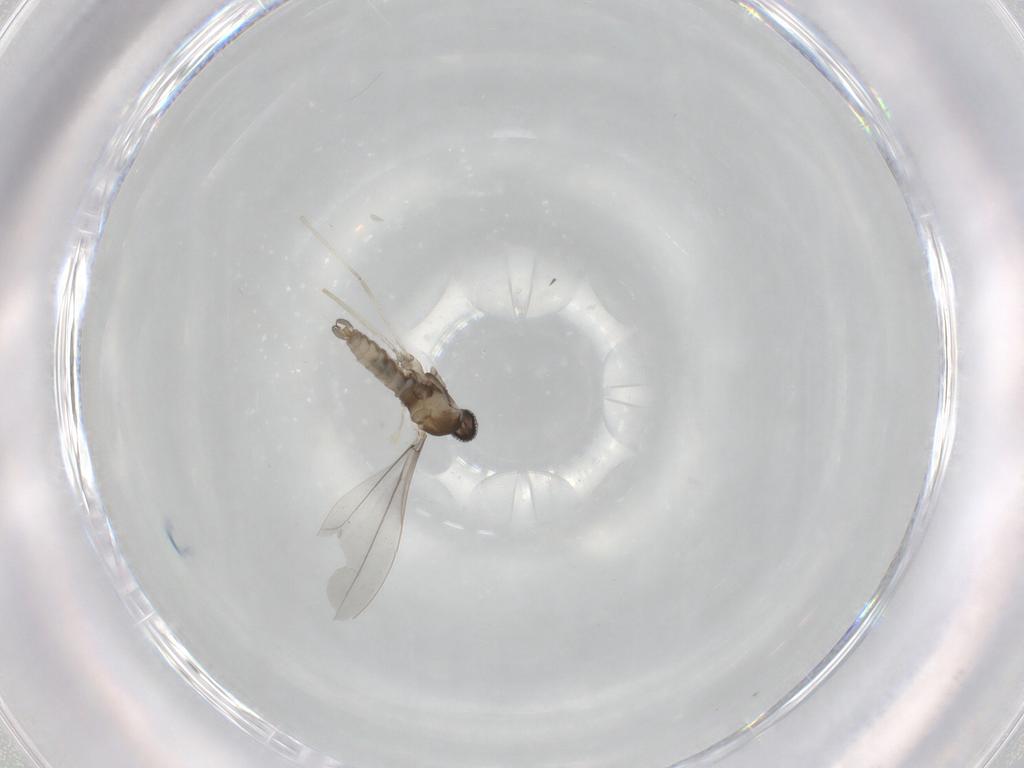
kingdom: Animalia
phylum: Arthropoda
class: Insecta
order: Diptera
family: Cecidomyiidae
